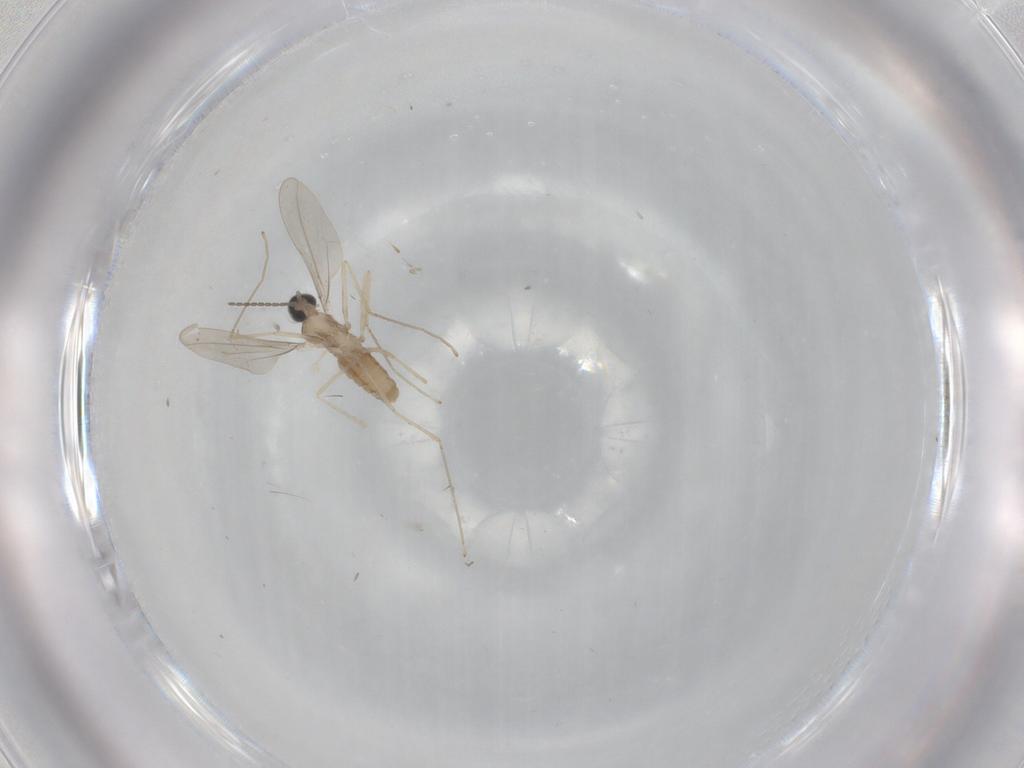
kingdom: Animalia
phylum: Arthropoda
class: Insecta
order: Diptera
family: Cecidomyiidae
